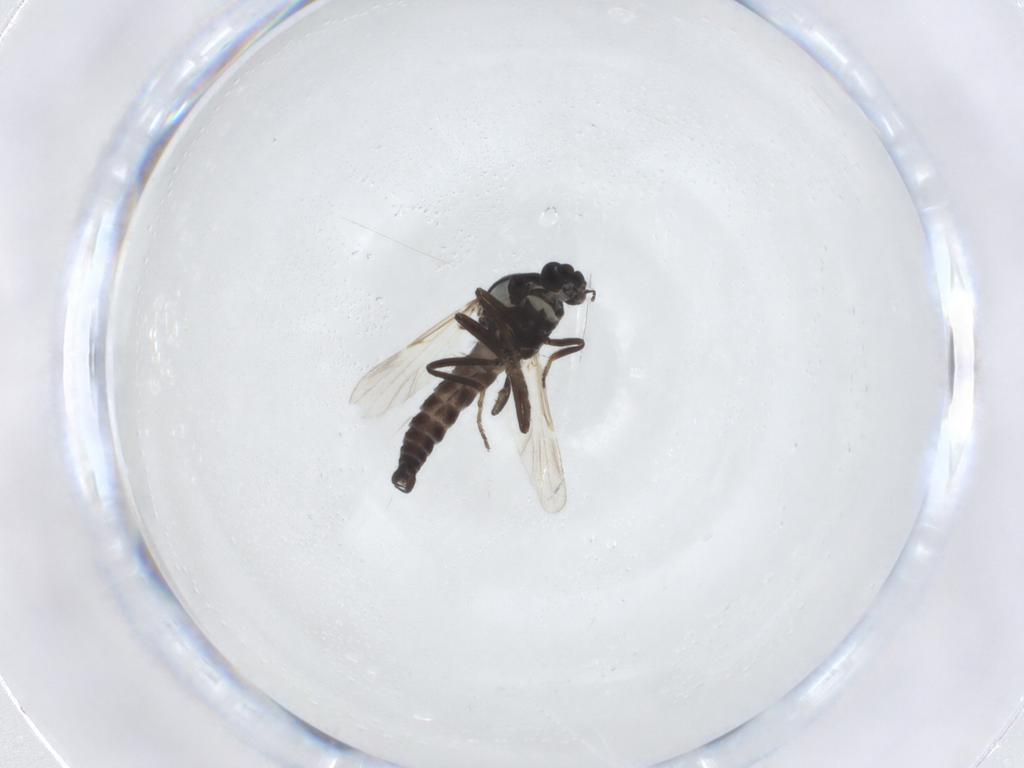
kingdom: Animalia
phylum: Arthropoda
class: Insecta
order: Diptera
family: Ceratopogonidae
